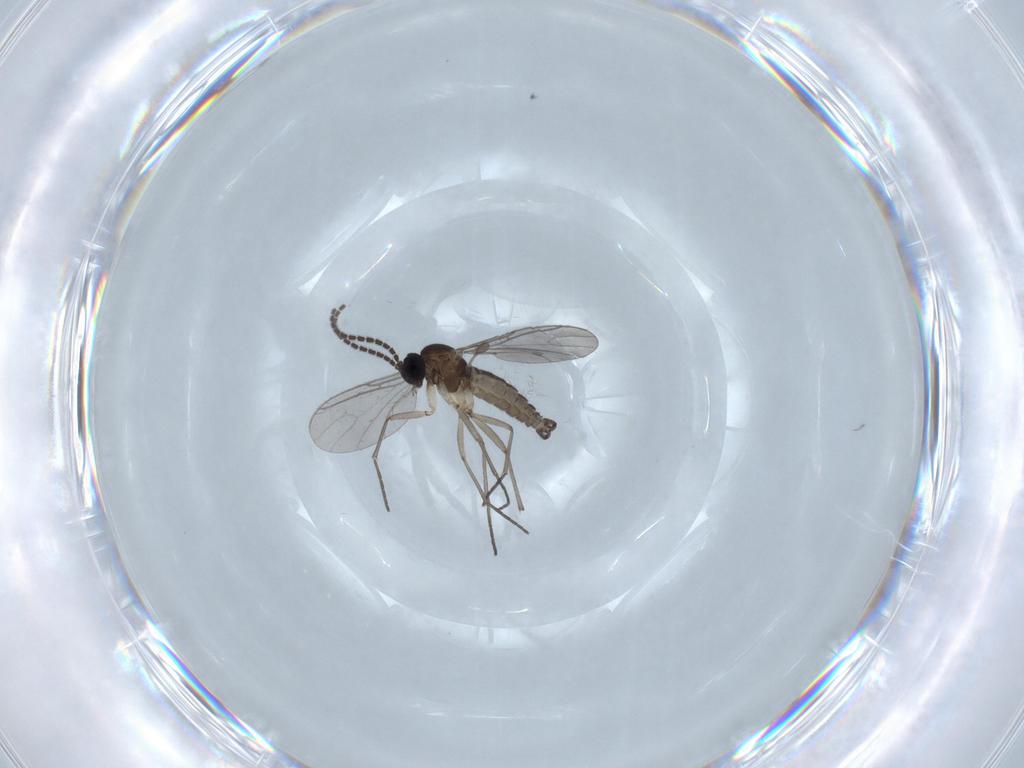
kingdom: Animalia
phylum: Arthropoda
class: Insecta
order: Diptera
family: Sciaridae
